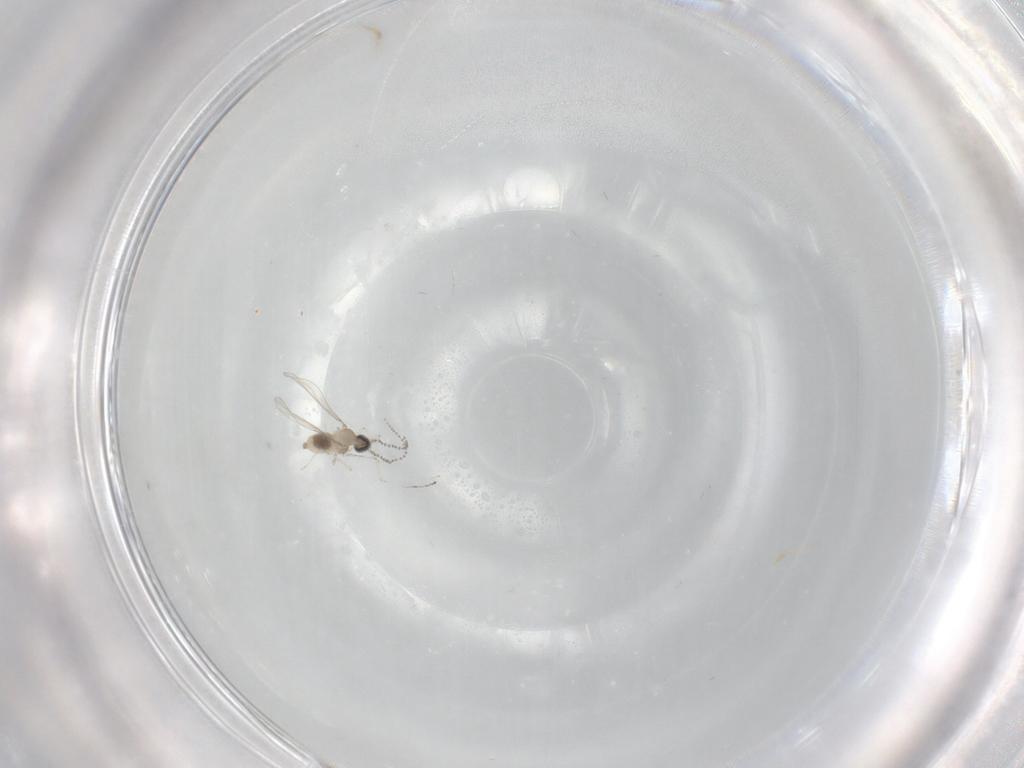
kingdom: Animalia
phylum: Arthropoda
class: Insecta
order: Diptera
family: Cecidomyiidae
